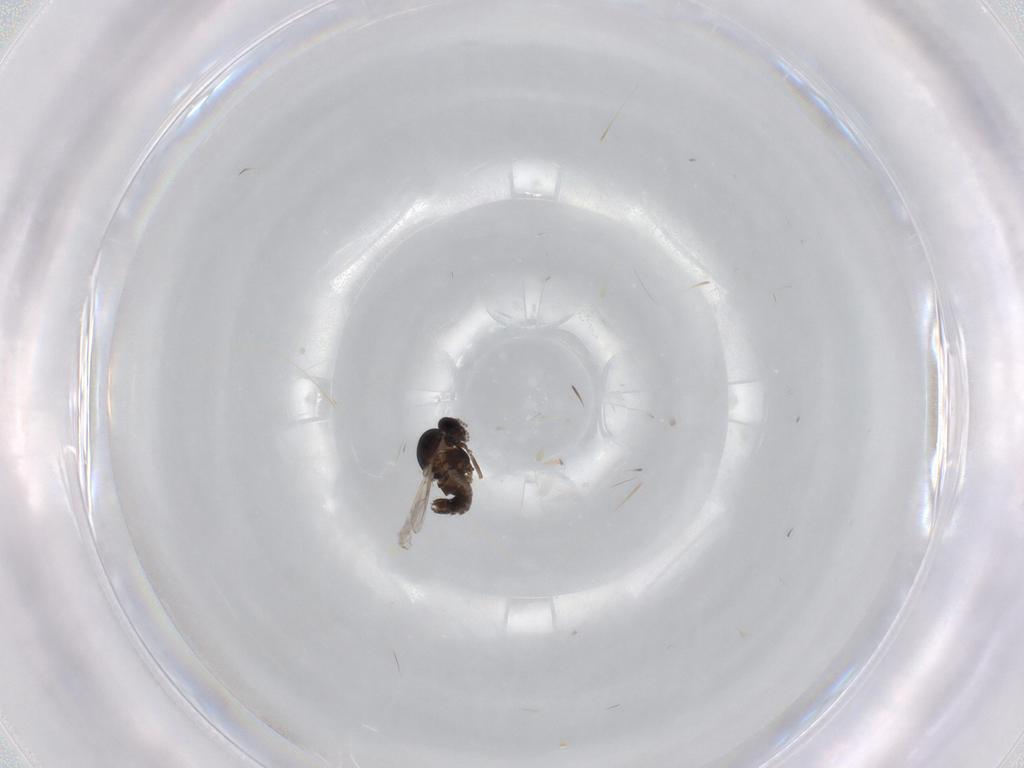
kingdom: Animalia
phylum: Arthropoda
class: Insecta
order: Diptera
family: Ceratopogonidae
